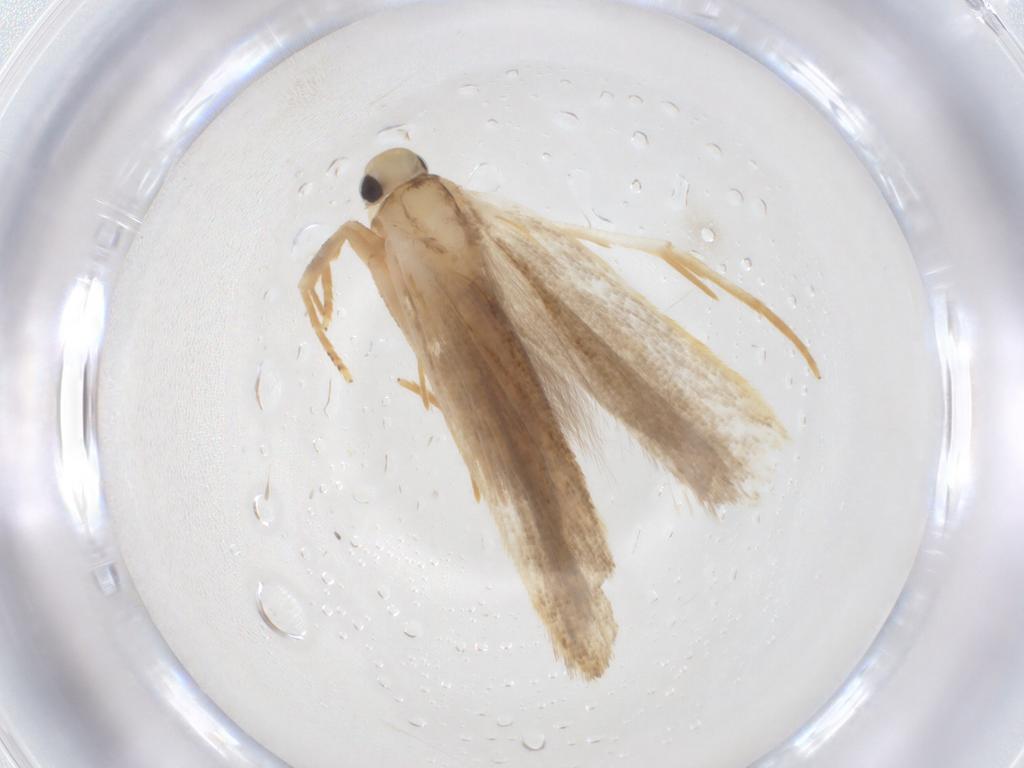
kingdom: Animalia
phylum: Arthropoda
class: Insecta
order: Lepidoptera
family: Gelechiidae
